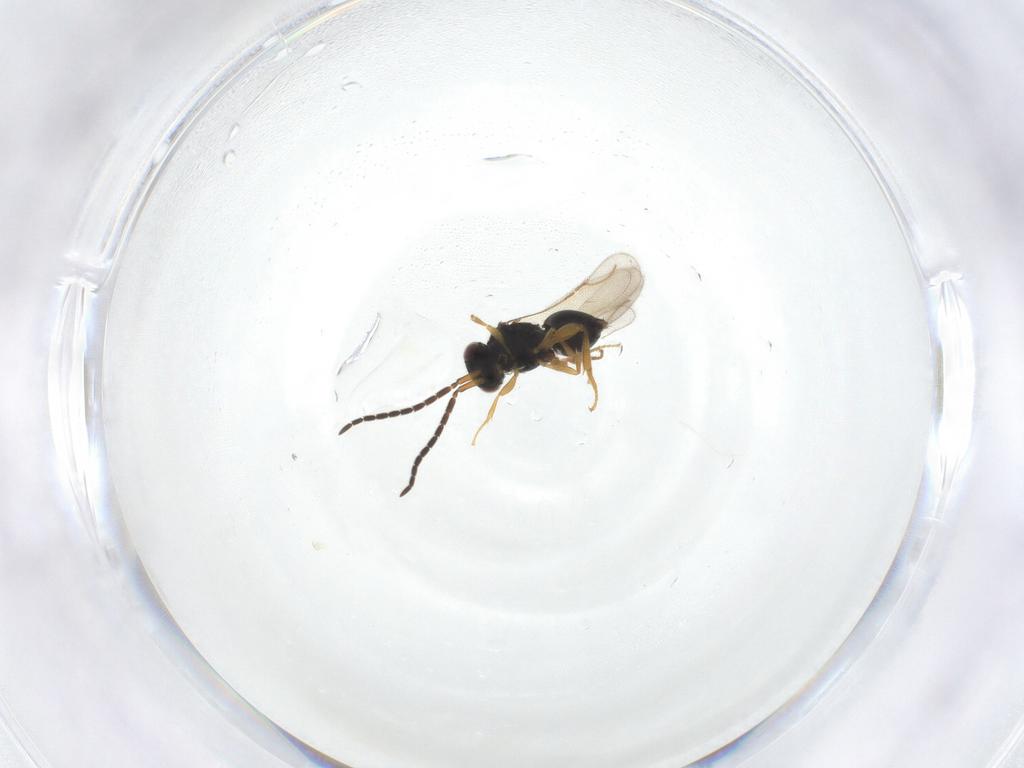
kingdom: Animalia
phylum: Arthropoda
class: Insecta
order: Hymenoptera
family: Ceraphronidae
